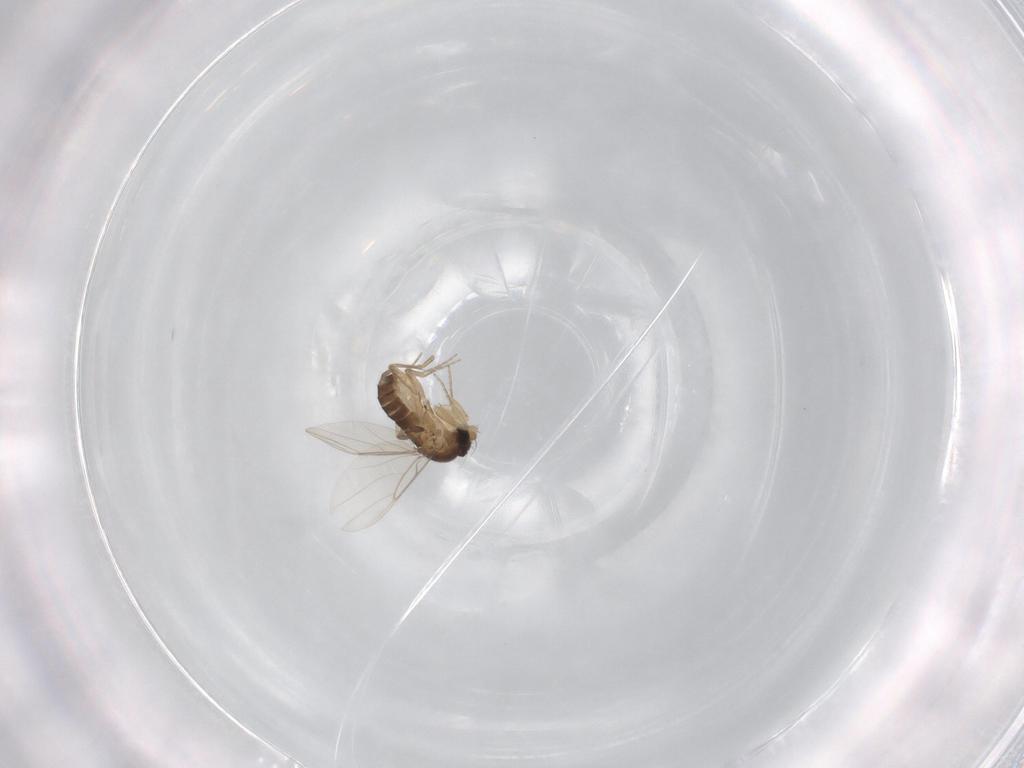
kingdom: Animalia
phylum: Arthropoda
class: Insecta
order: Diptera
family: Phoridae
